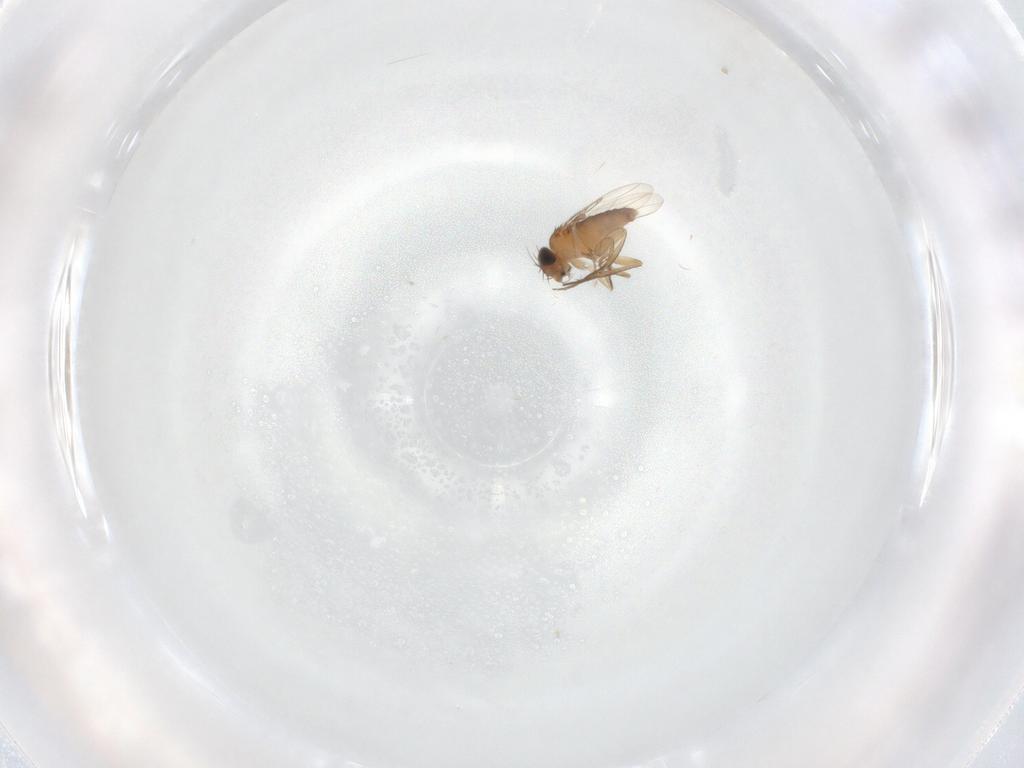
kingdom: Animalia
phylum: Arthropoda
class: Insecta
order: Diptera
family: Phoridae
